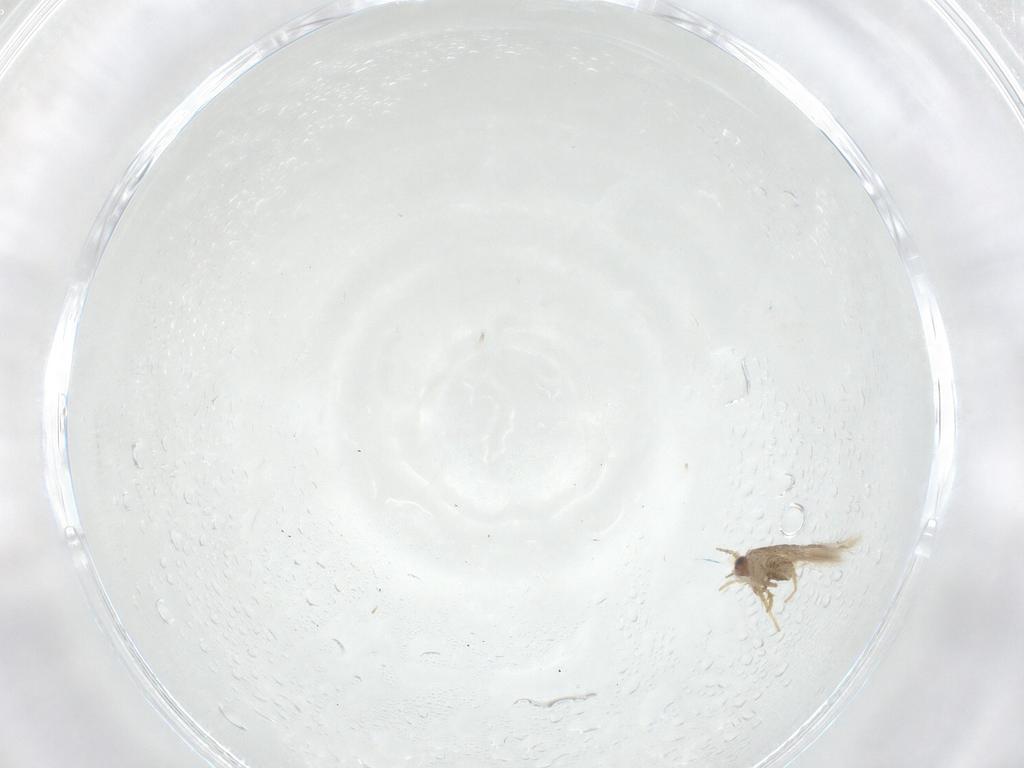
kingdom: Animalia
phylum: Arthropoda
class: Insecta
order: Lepidoptera
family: Nepticulidae
